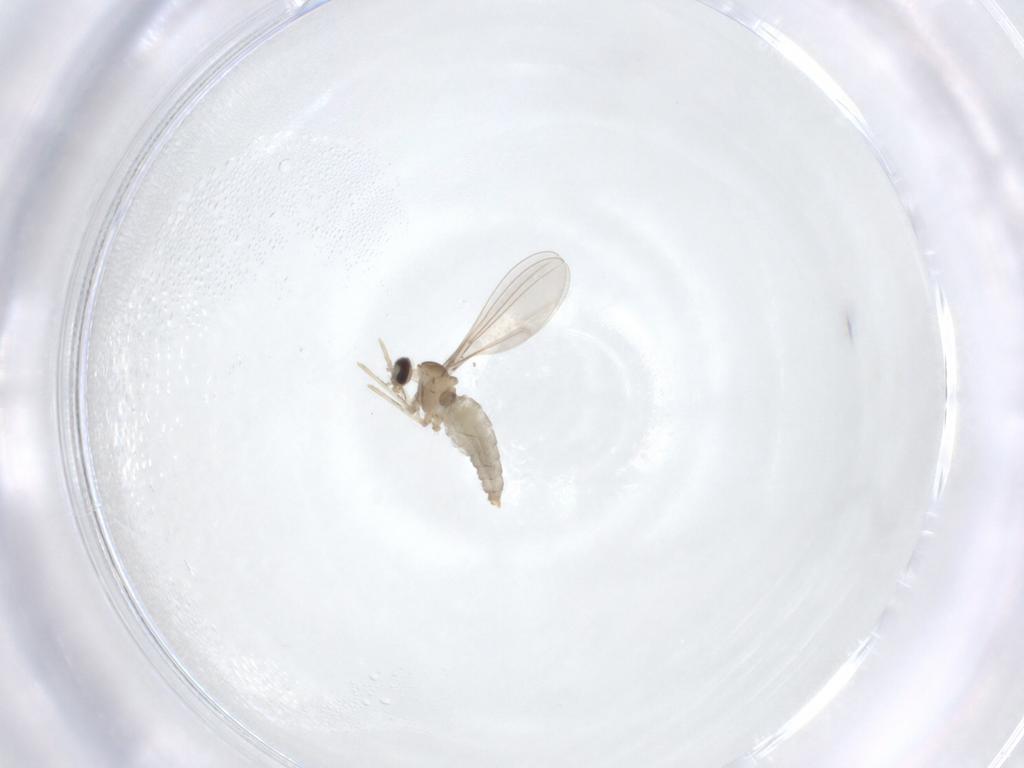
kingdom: Animalia
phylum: Arthropoda
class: Insecta
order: Diptera
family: Cecidomyiidae
